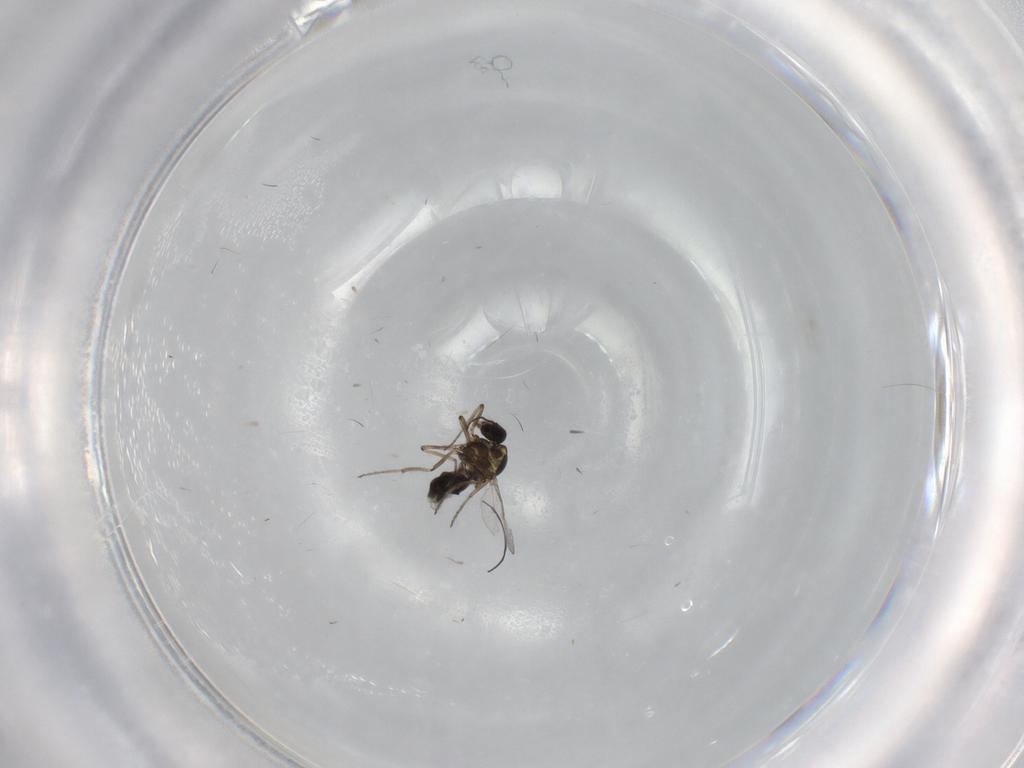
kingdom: Animalia
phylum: Arthropoda
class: Insecta
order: Diptera
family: Ceratopogonidae
